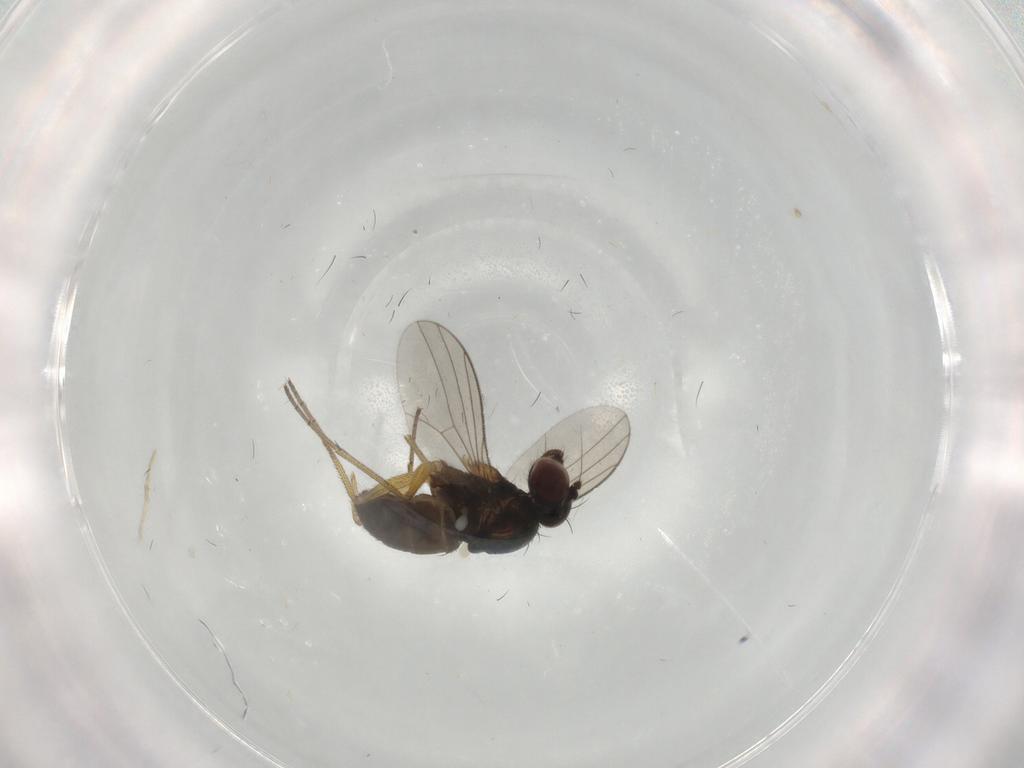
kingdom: Animalia
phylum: Arthropoda
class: Insecta
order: Diptera
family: Dolichopodidae
